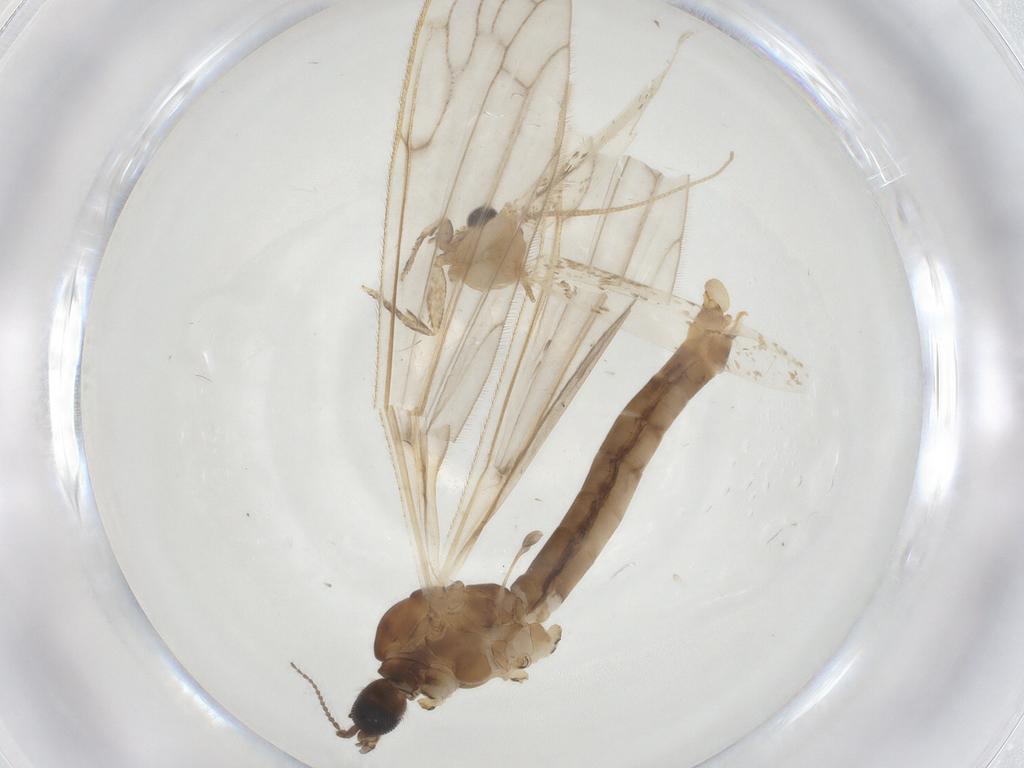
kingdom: Animalia
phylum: Arthropoda
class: Insecta
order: Diptera
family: Limoniidae
